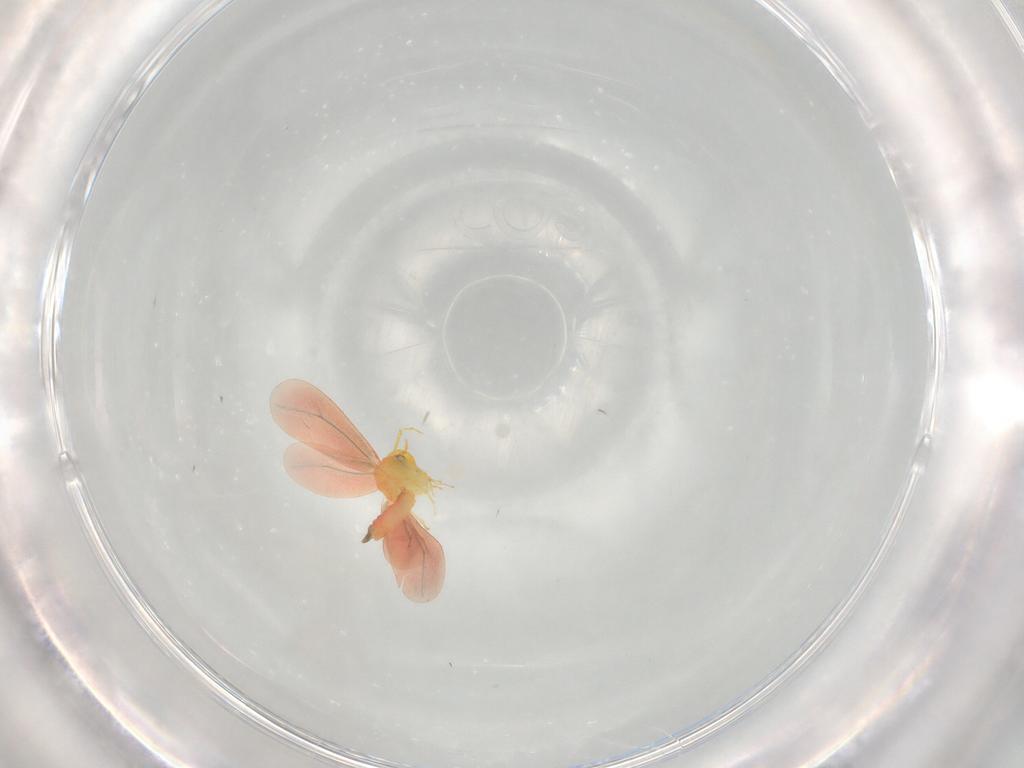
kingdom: Animalia
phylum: Arthropoda
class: Insecta
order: Hemiptera
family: Aleyrodidae
